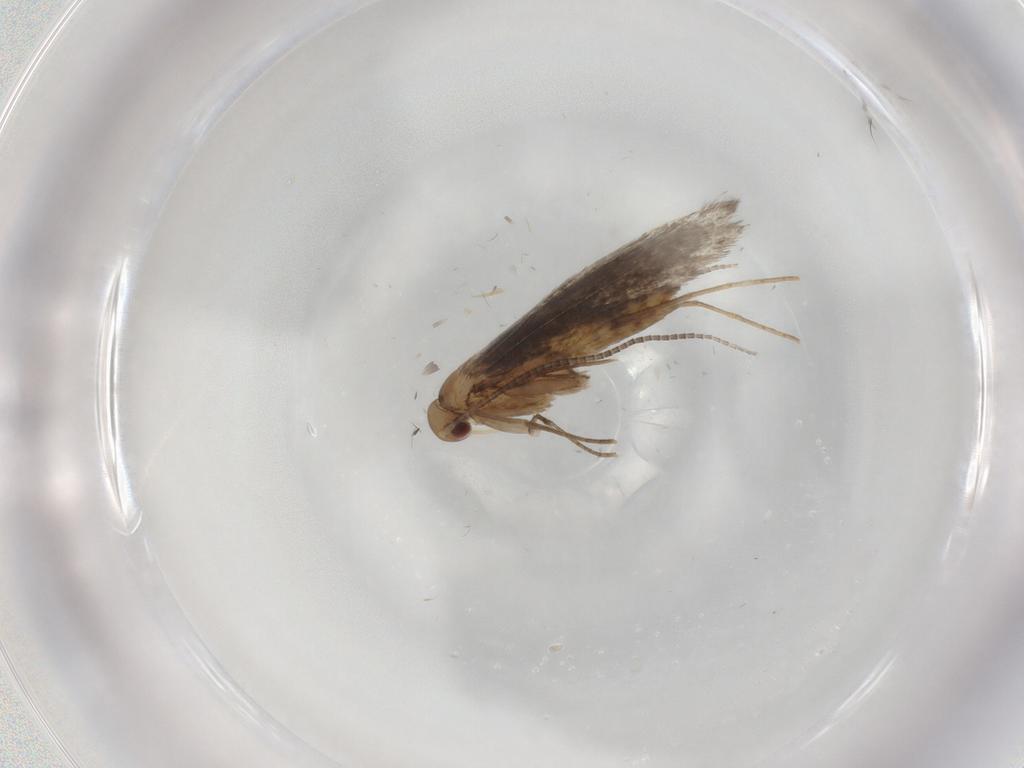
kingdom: Animalia
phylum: Arthropoda
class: Insecta
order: Lepidoptera
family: Gracillariidae
